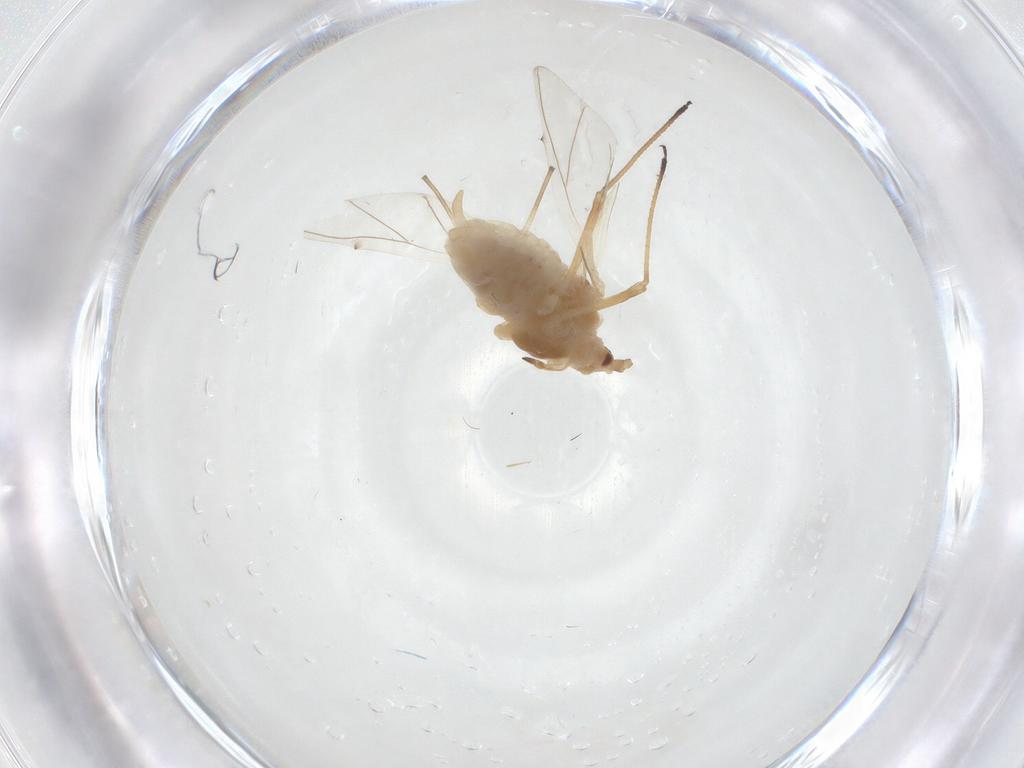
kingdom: Animalia
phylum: Arthropoda
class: Insecta
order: Hemiptera
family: Aphididae
